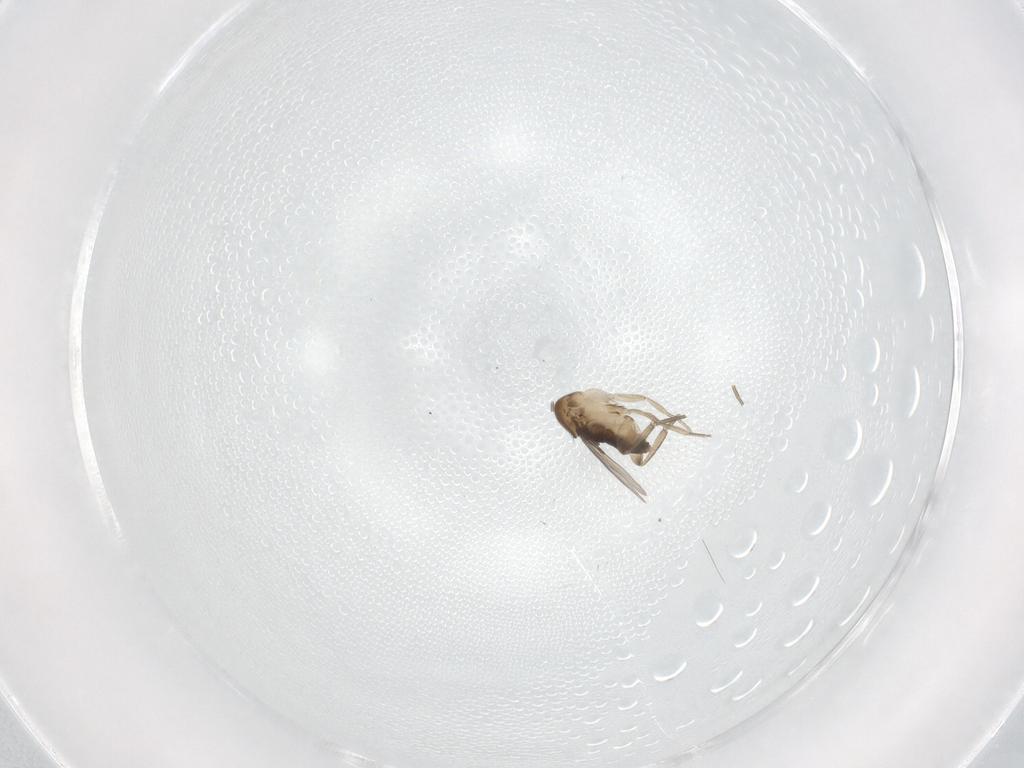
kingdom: Animalia
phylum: Arthropoda
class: Insecta
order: Diptera
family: Phoridae
